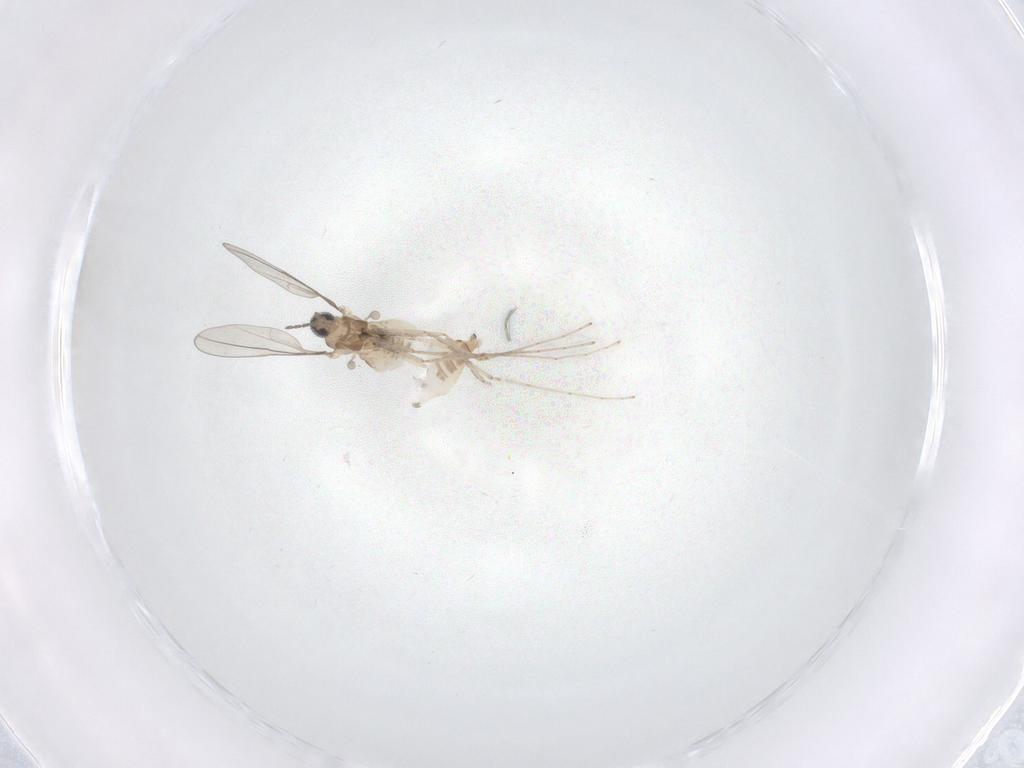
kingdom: Animalia
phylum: Arthropoda
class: Insecta
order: Diptera
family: Cecidomyiidae
